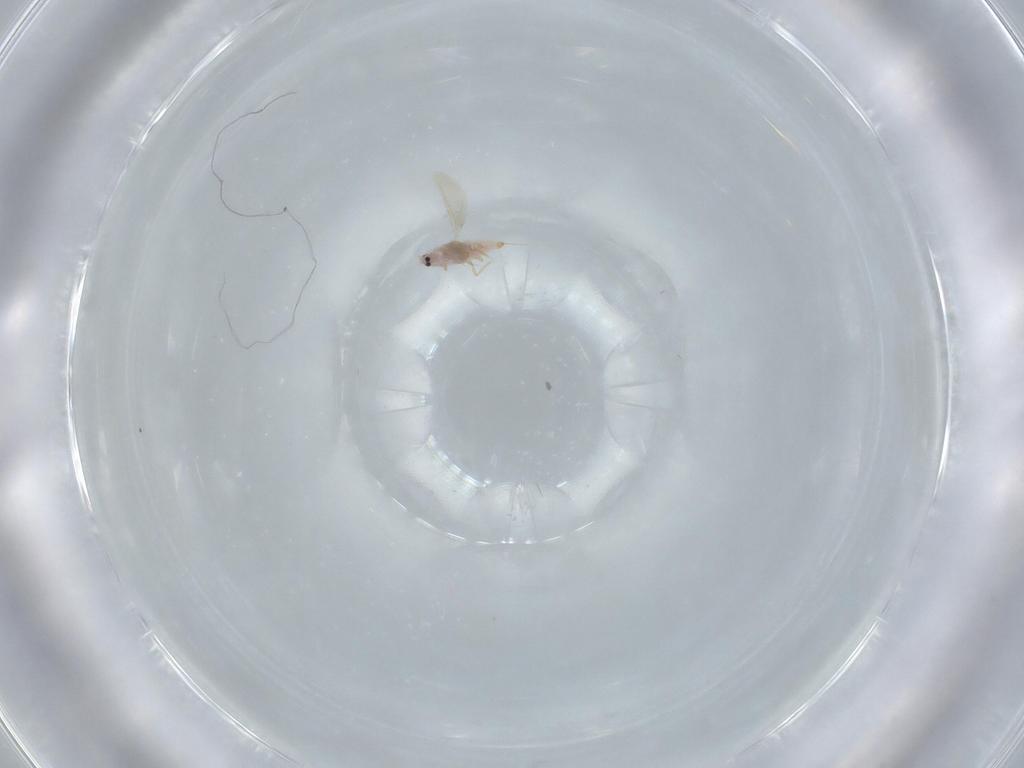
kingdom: Animalia
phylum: Arthropoda
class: Insecta
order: Hemiptera
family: Diaspididae
